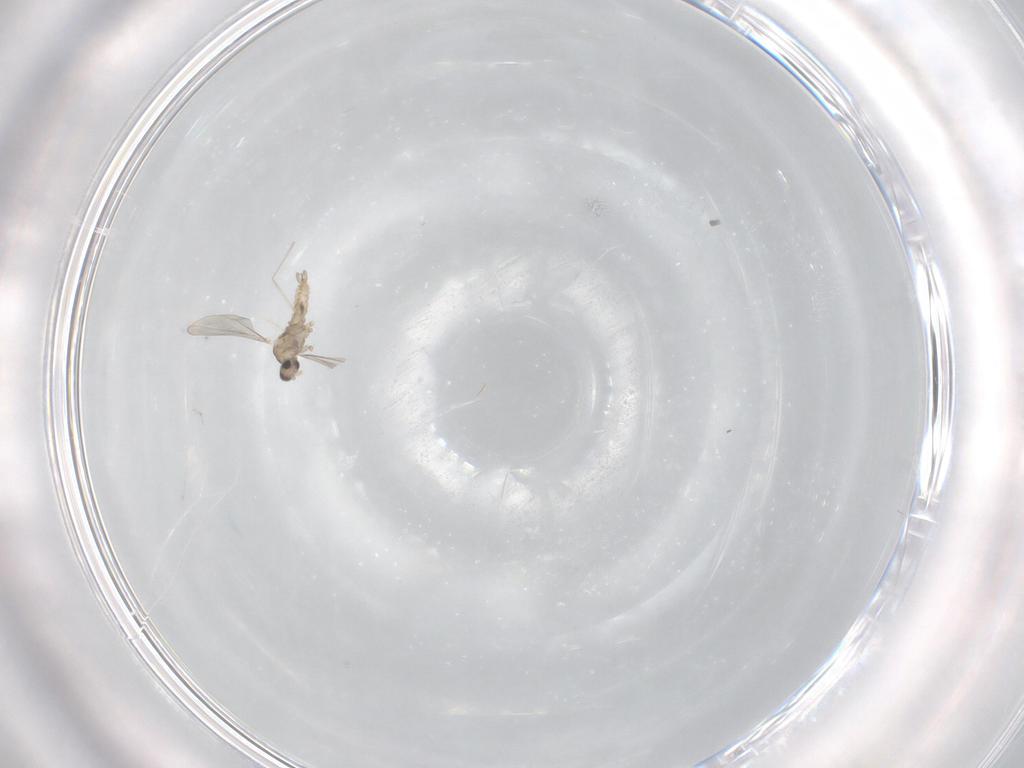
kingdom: Animalia
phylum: Arthropoda
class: Insecta
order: Diptera
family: Cecidomyiidae
